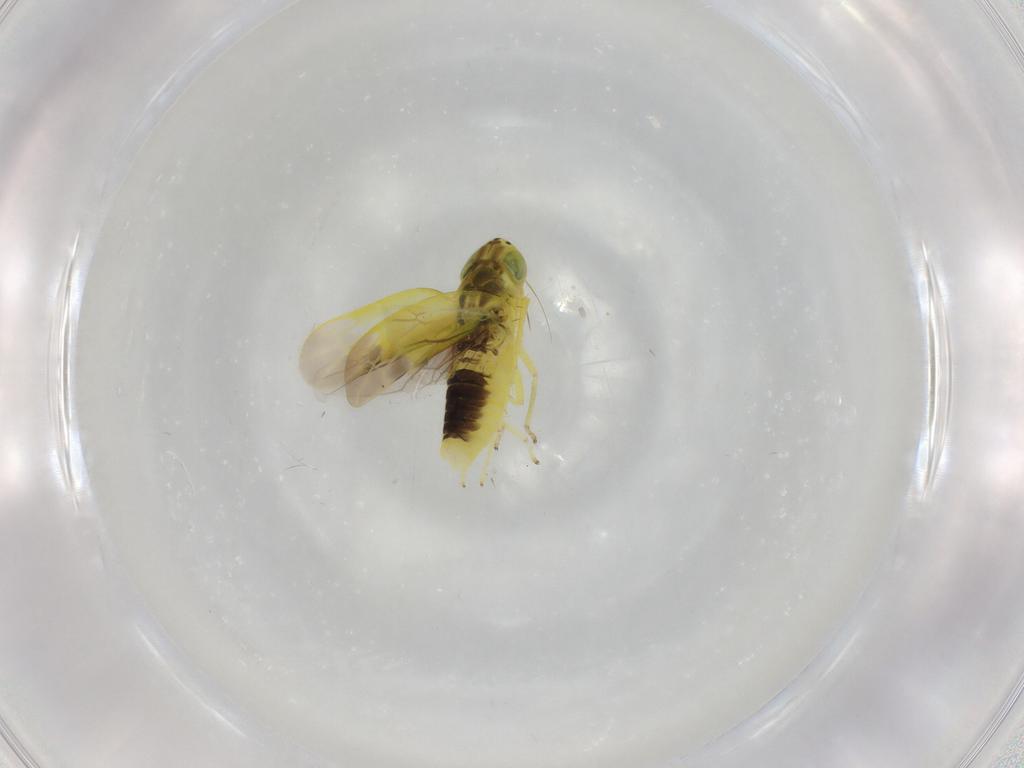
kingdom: Animalia
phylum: Arthropoda
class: Insecta
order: Hemiptera
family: Cicadellidae
